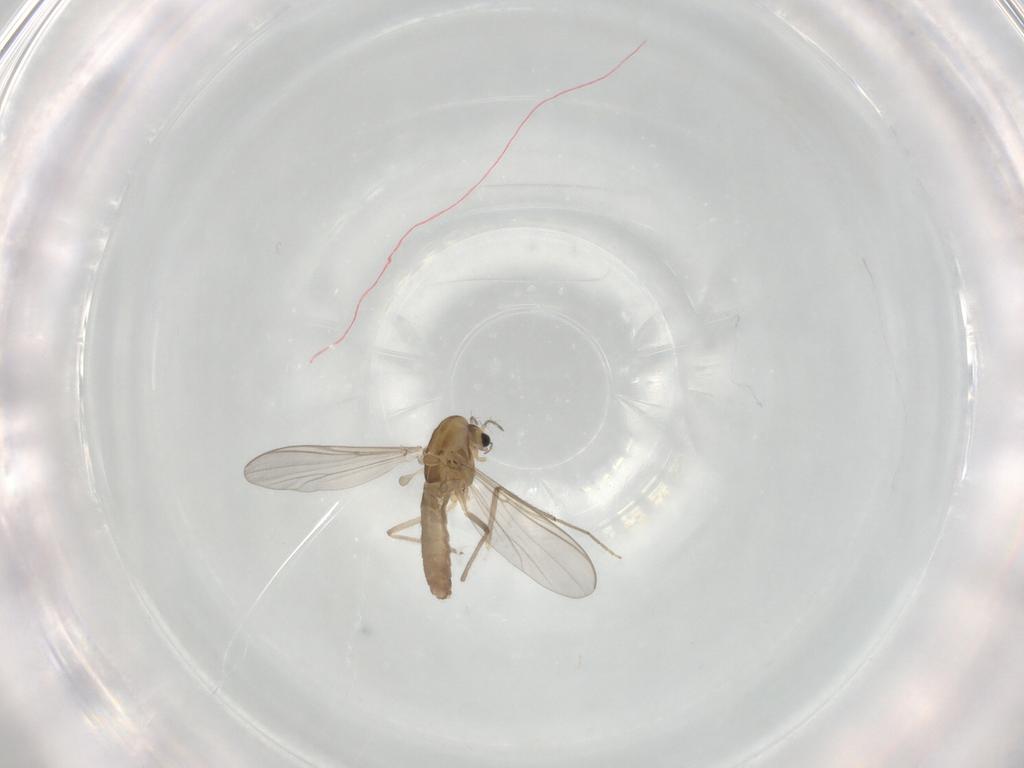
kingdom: Animalia
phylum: Arthropoda
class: Insecta
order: Diptera
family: Chironomidae
